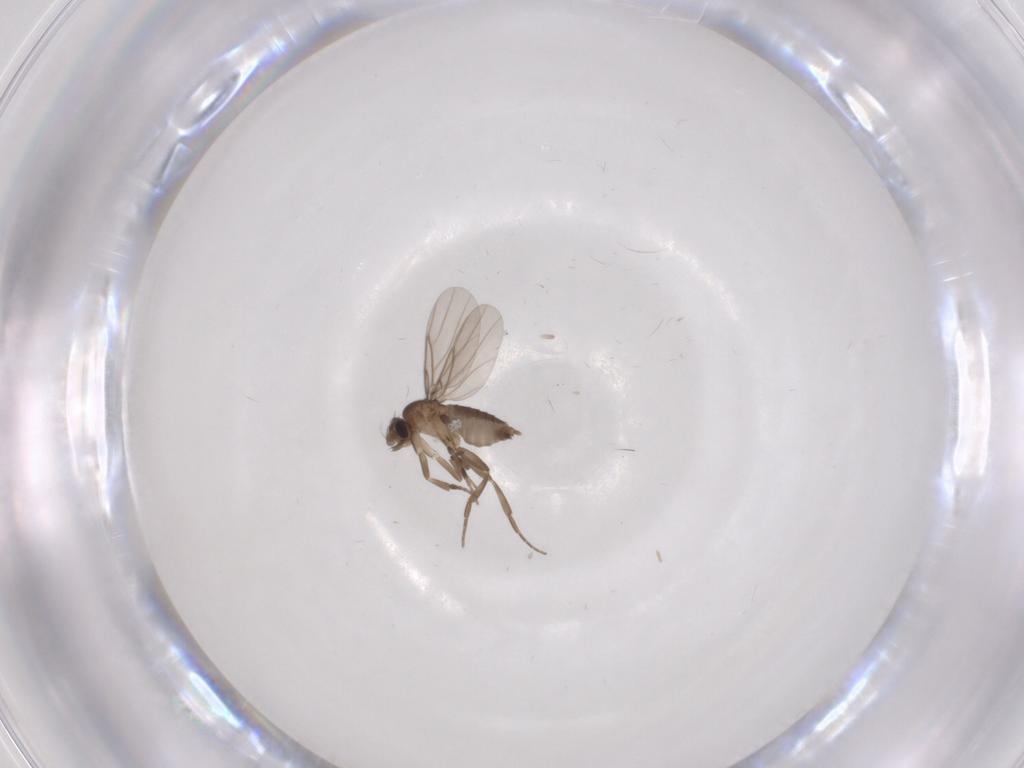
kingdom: Animalia
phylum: Arthropoda
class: Insecta
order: Diptera
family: Phoridae
